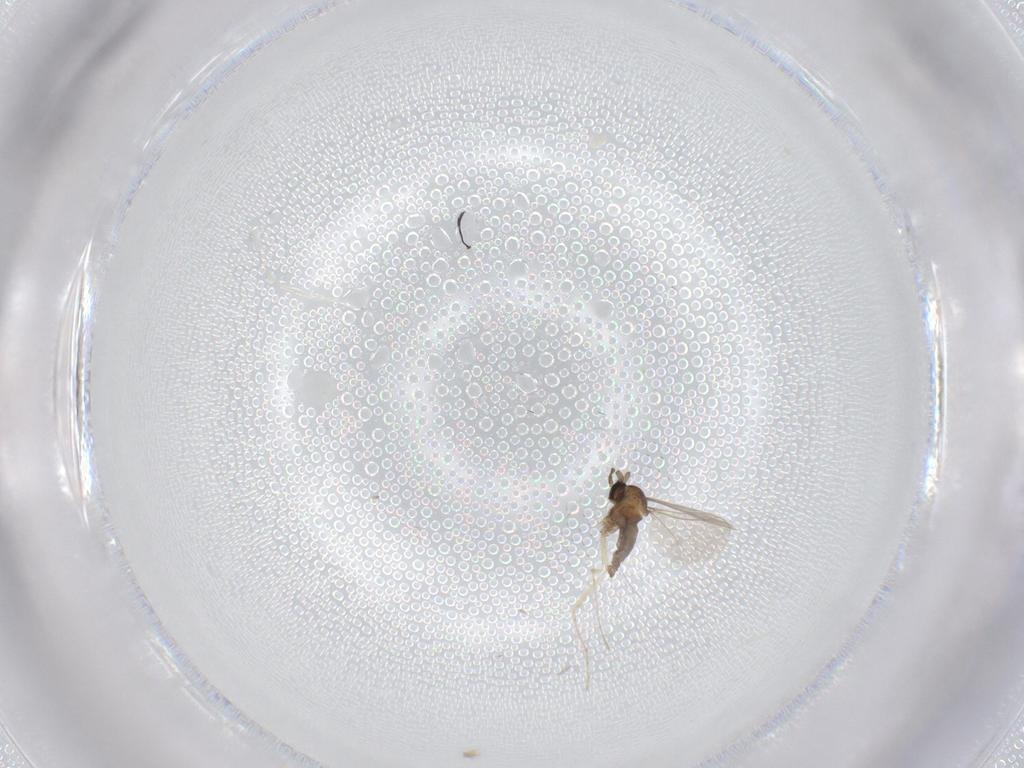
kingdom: Animalia
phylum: Arthropoda
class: Insecta
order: Diptera
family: Cecidomyiidae
